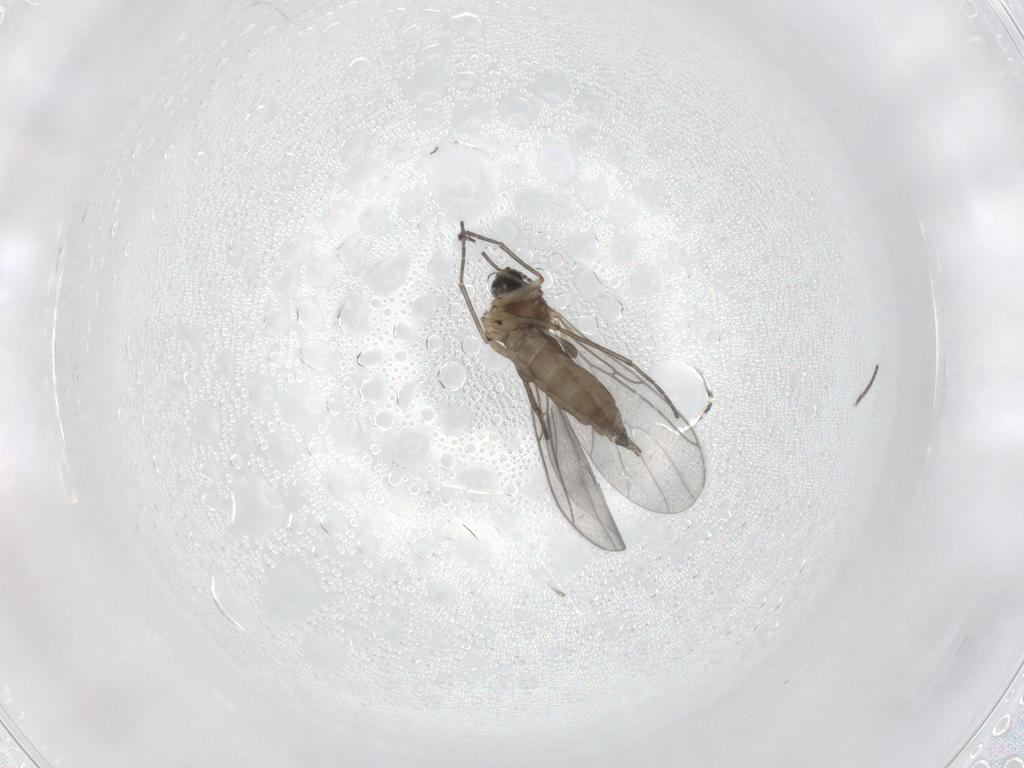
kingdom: Animalia
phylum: Arthropoda
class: Insecta
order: Diptera
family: Sciaridae
